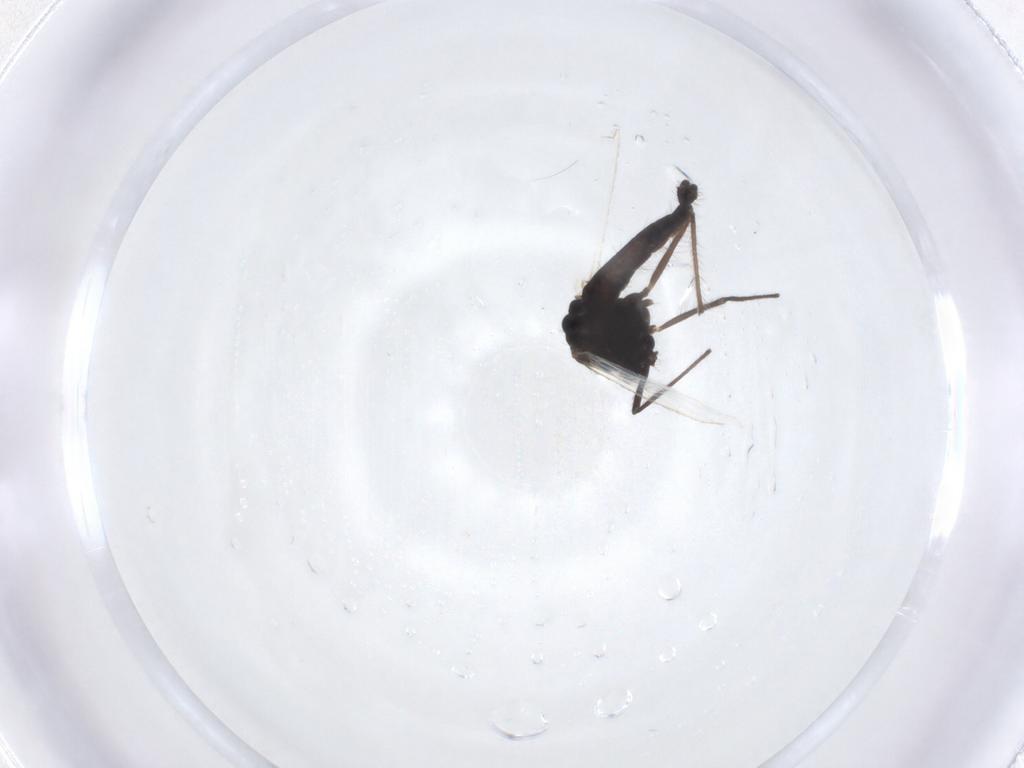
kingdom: Animalia
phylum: Arthropoda
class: Insecta
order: Diptera
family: Chironomidae
